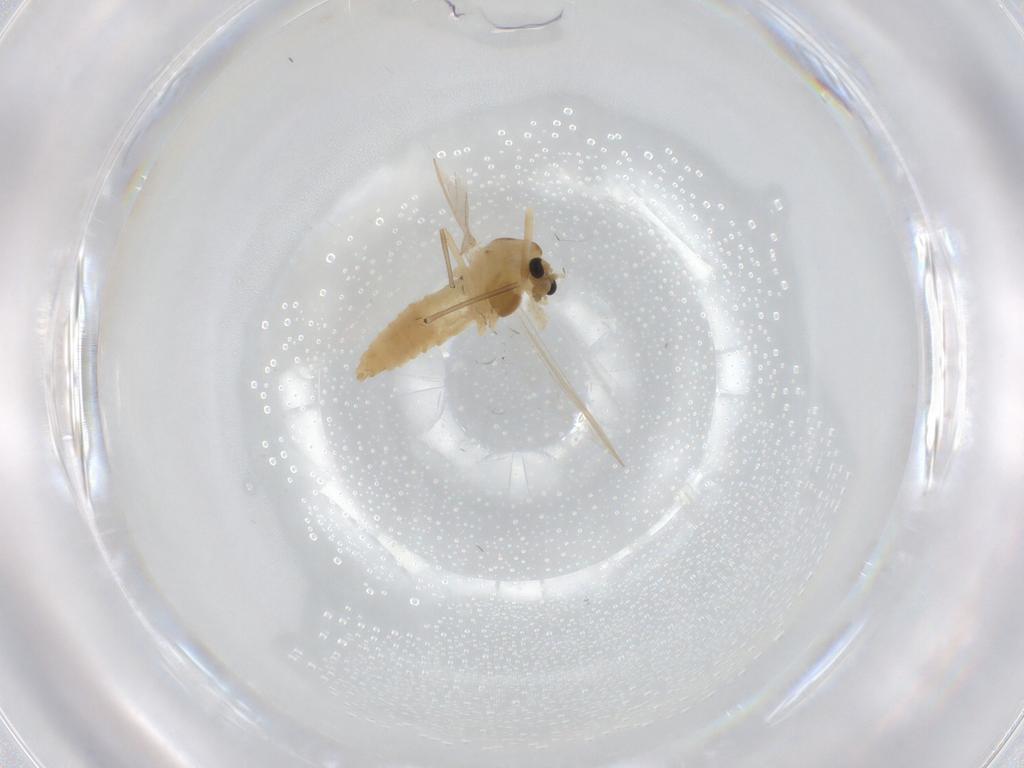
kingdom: Animalia
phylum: Arthropoda
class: Insecta
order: Diptera
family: Chironomidae
